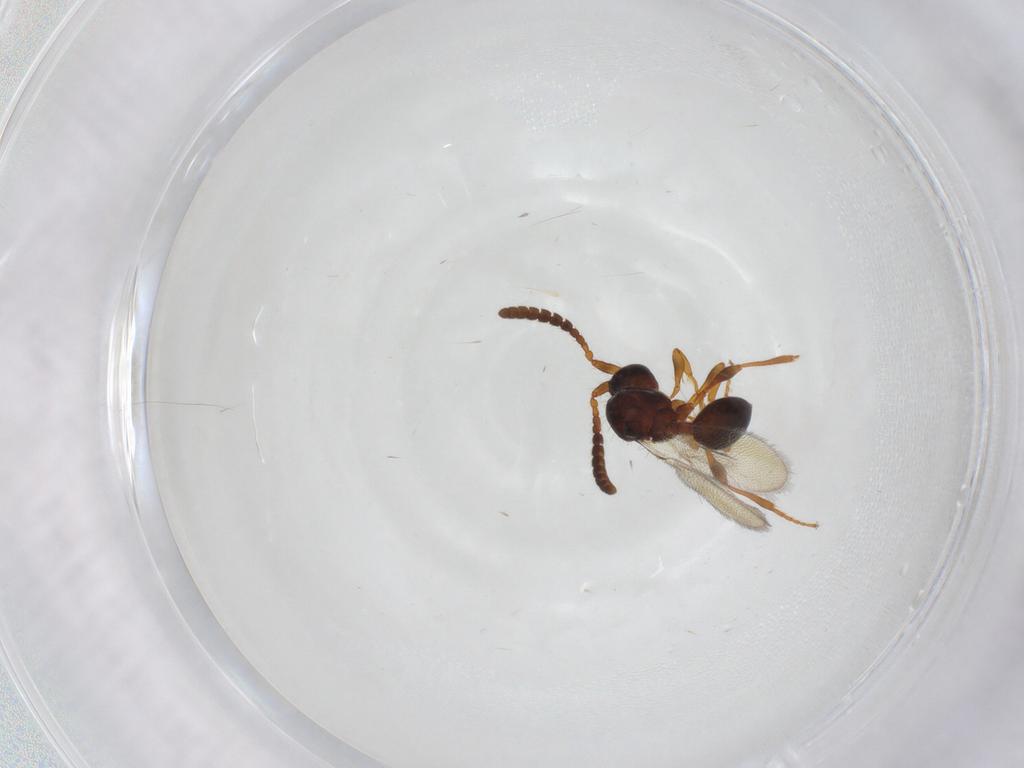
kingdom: Animalia
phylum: Arthropoda
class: Insecta
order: Hymenoptera
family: Diapriidae
